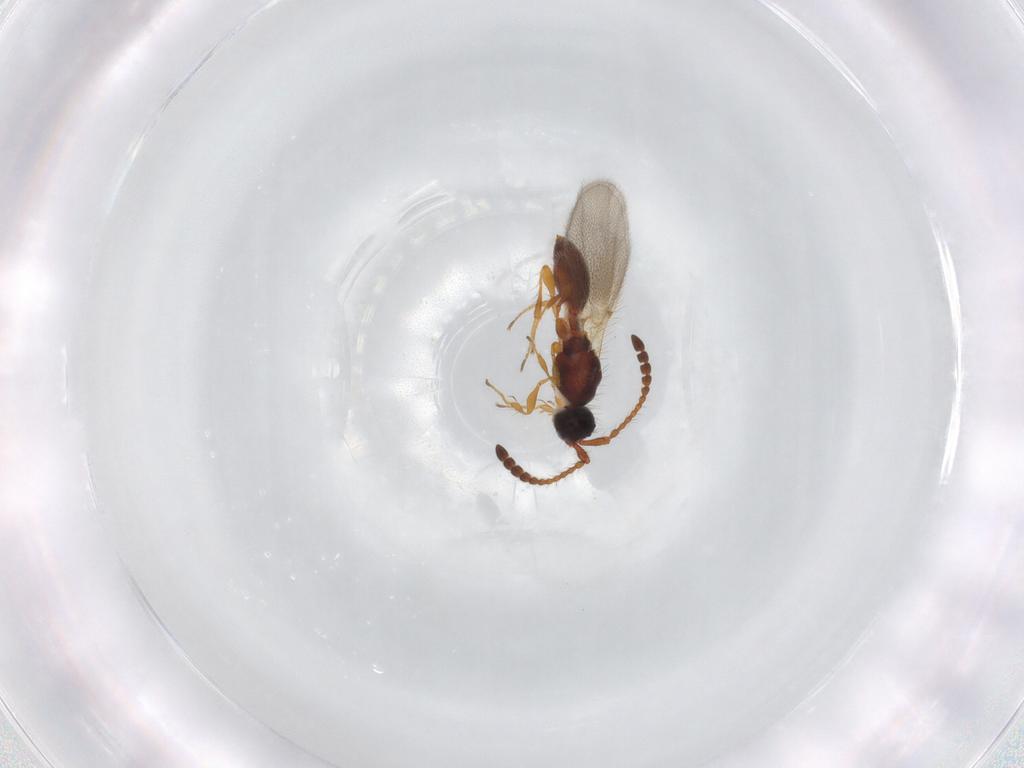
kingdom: Animalia
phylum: Arthropoda
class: Insecta
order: Hymenoptera
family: Diapriidae
